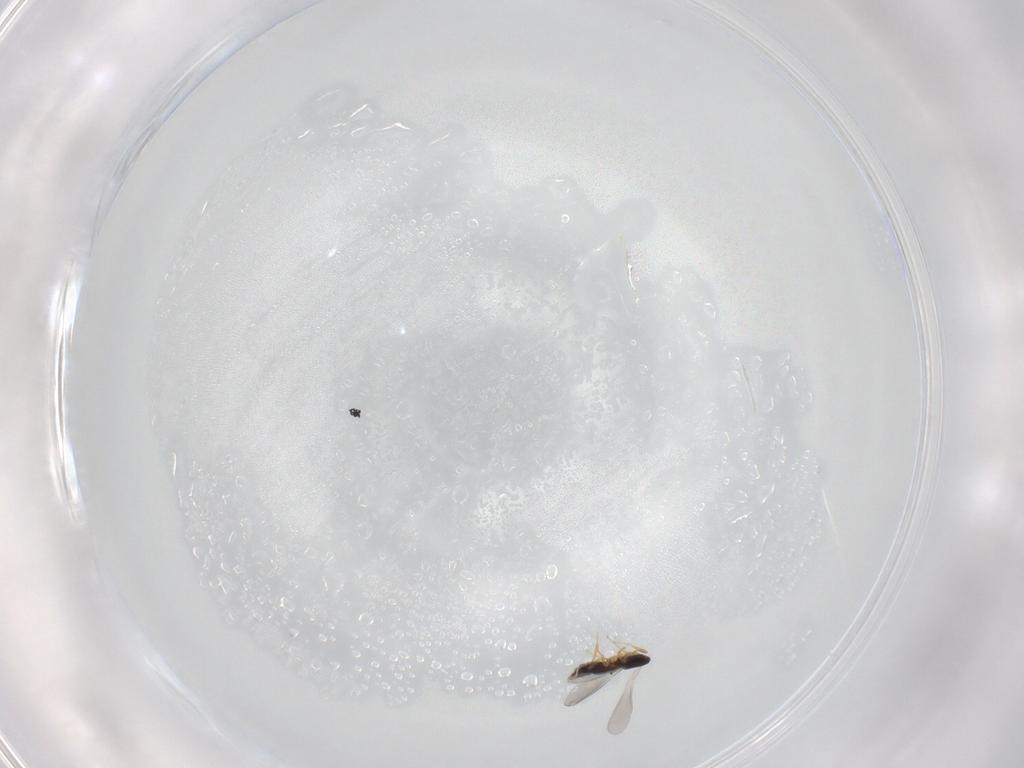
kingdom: Animalia
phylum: Arthropoda
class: Insecta
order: Hymenoptera
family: Platygastridae
